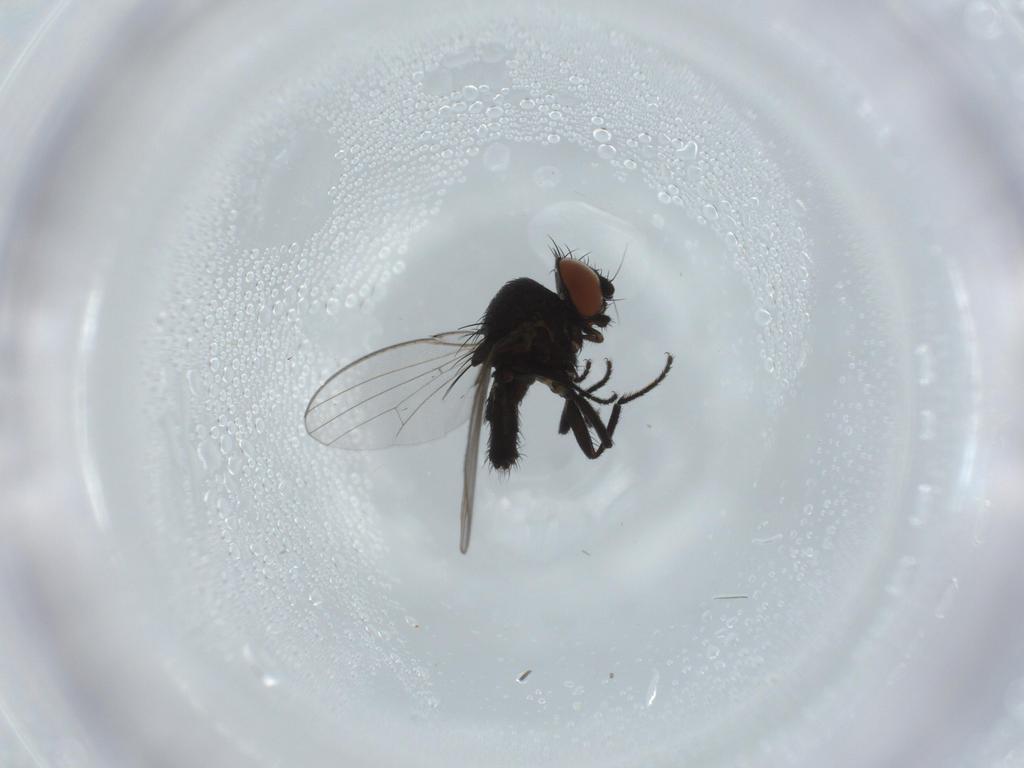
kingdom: Animalia
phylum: Arthropoda
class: Insecta
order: Diptera
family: Milichiidae
